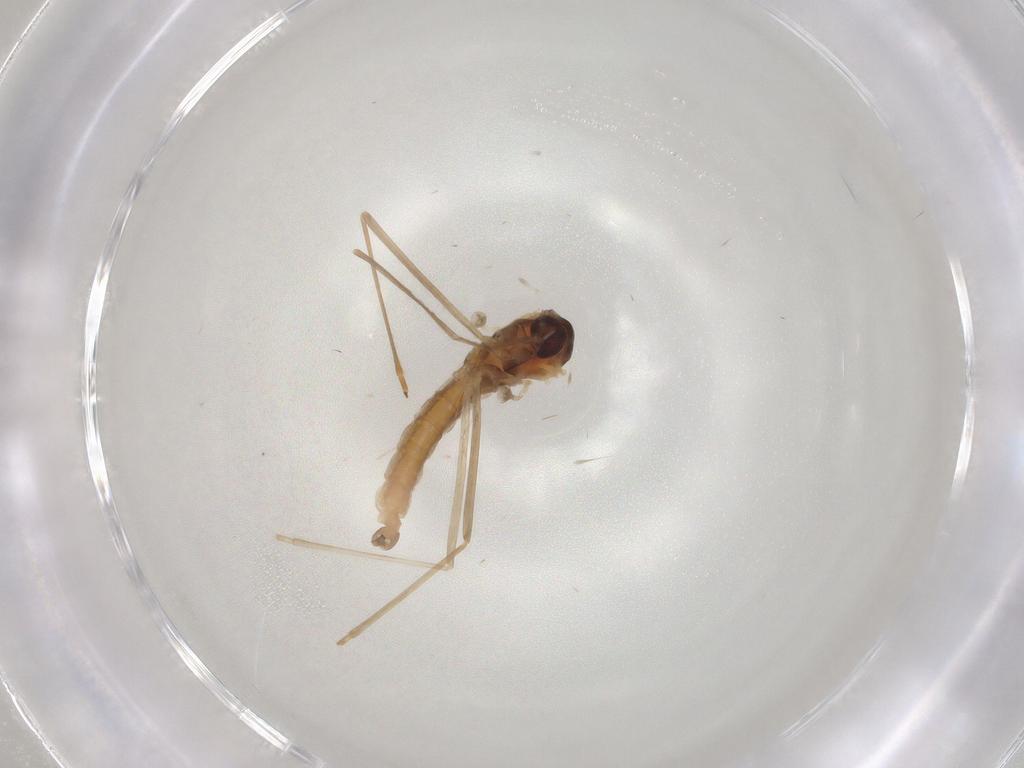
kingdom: Animalia
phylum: Arthropoda
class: Insecta
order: Diptera
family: Cecidomyiidae
